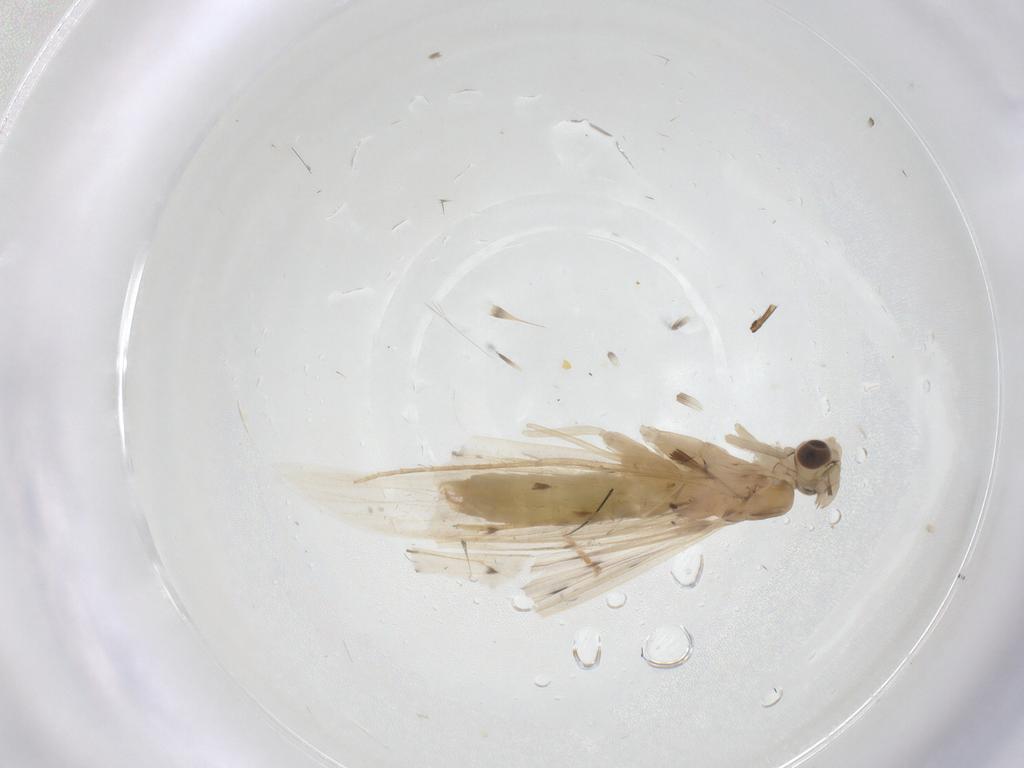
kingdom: Animalia
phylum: Arthropoda
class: Insecta
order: Trichoptera
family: Leptoceridae
